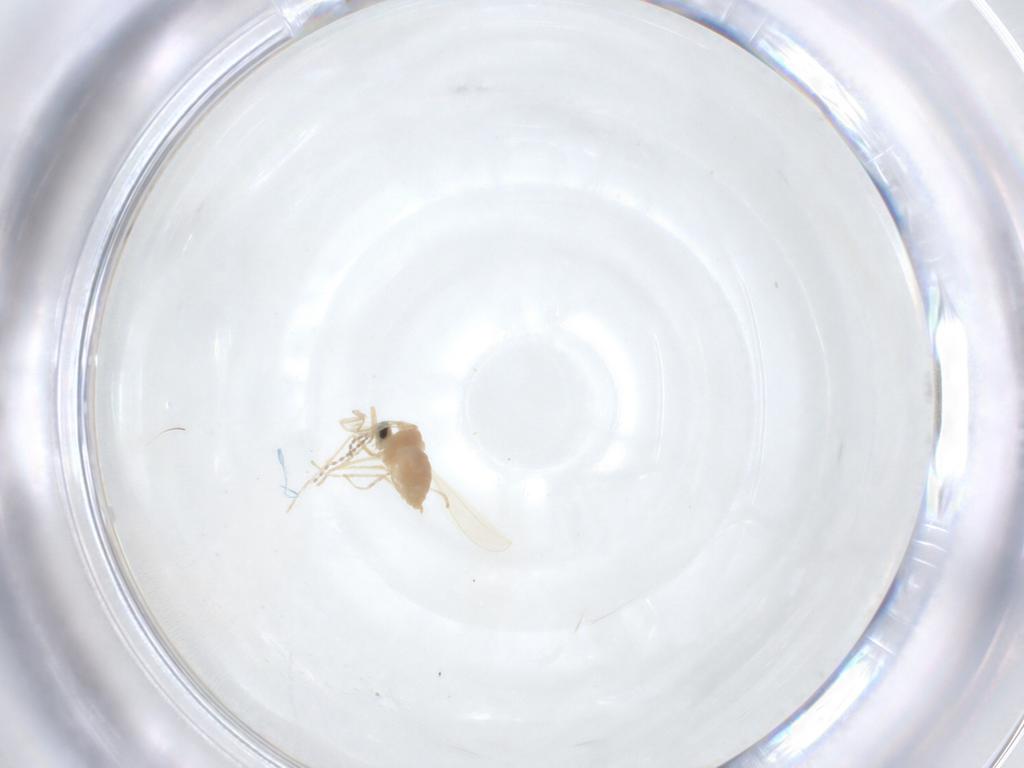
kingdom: Animalia
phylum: Arthropoda
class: Insecta
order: Diptera
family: Cecidomyiidae
